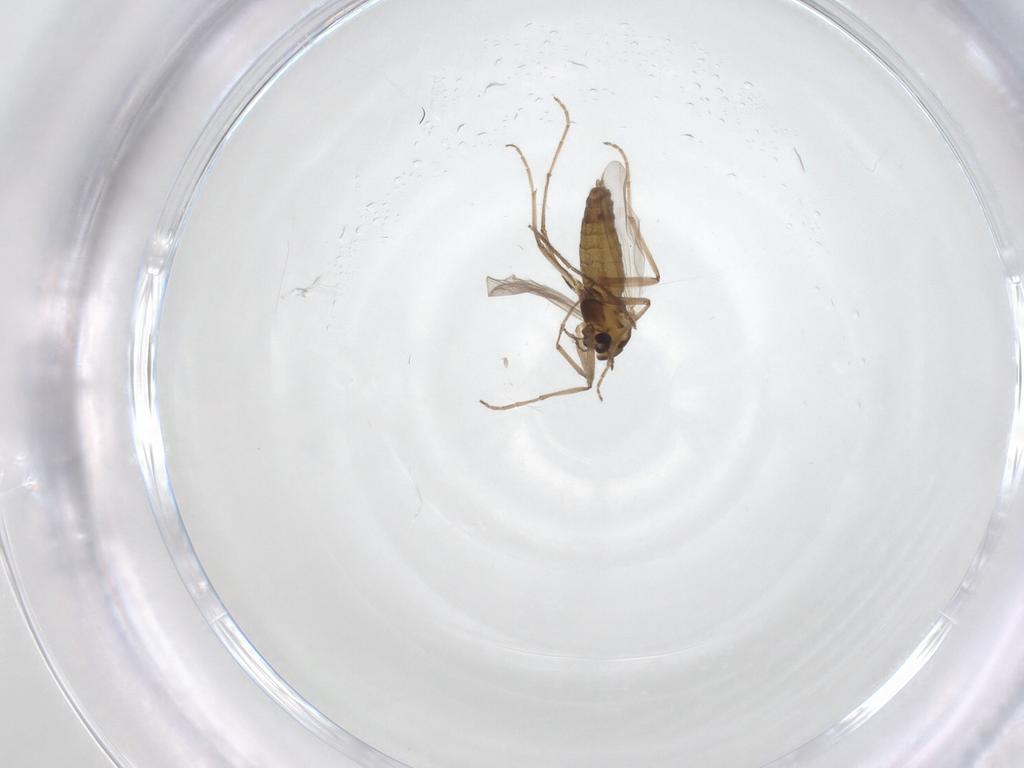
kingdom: Animalia
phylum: Arthropoda
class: Insecta
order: Diptera
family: Chironomidae
